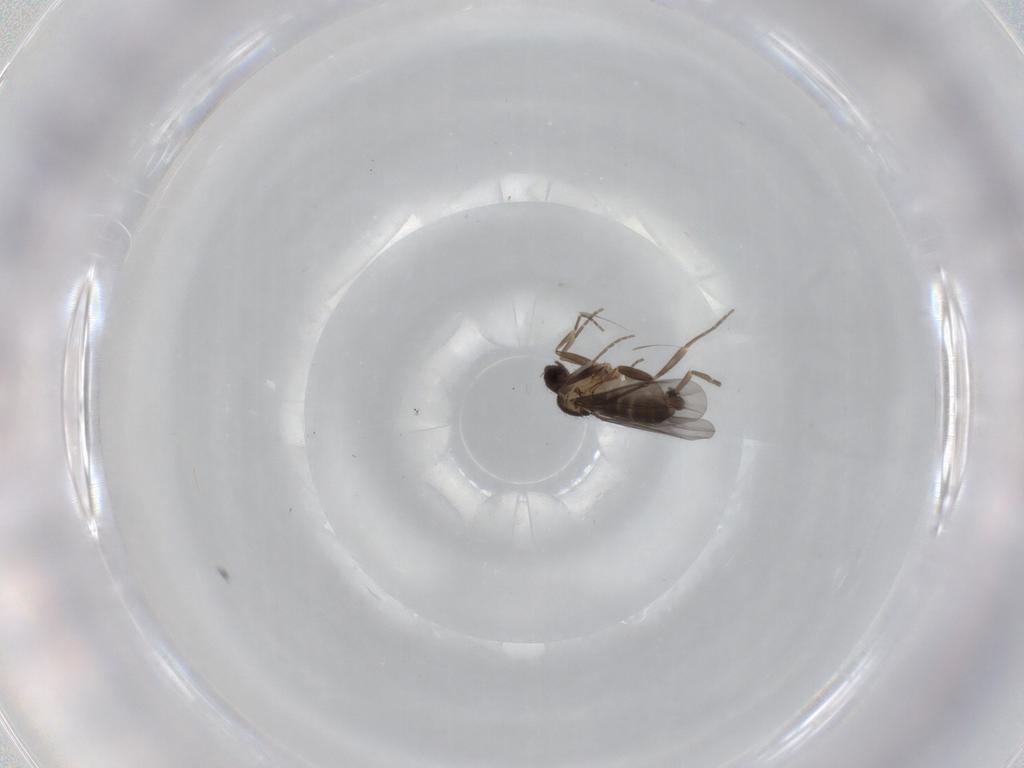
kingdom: Animalia
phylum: Arthropoda
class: Insecta
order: Diptera
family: Phoridae
